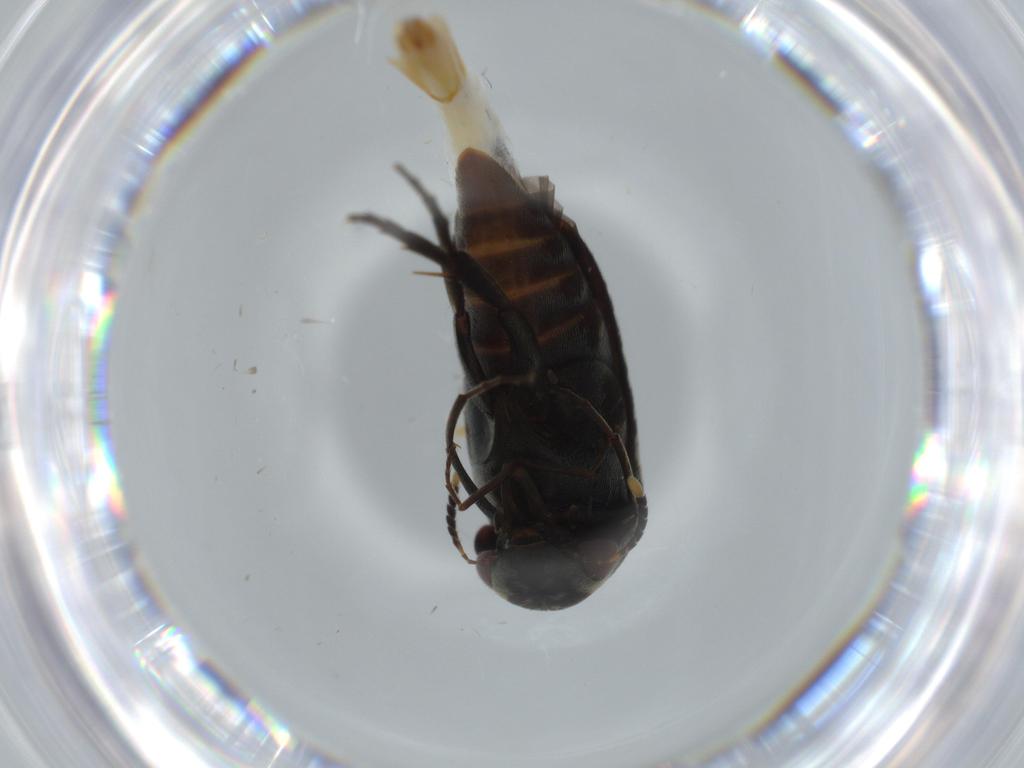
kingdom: Animalia
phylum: Arthropoda
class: Insecta
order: Coleoptera
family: Mordellidae
